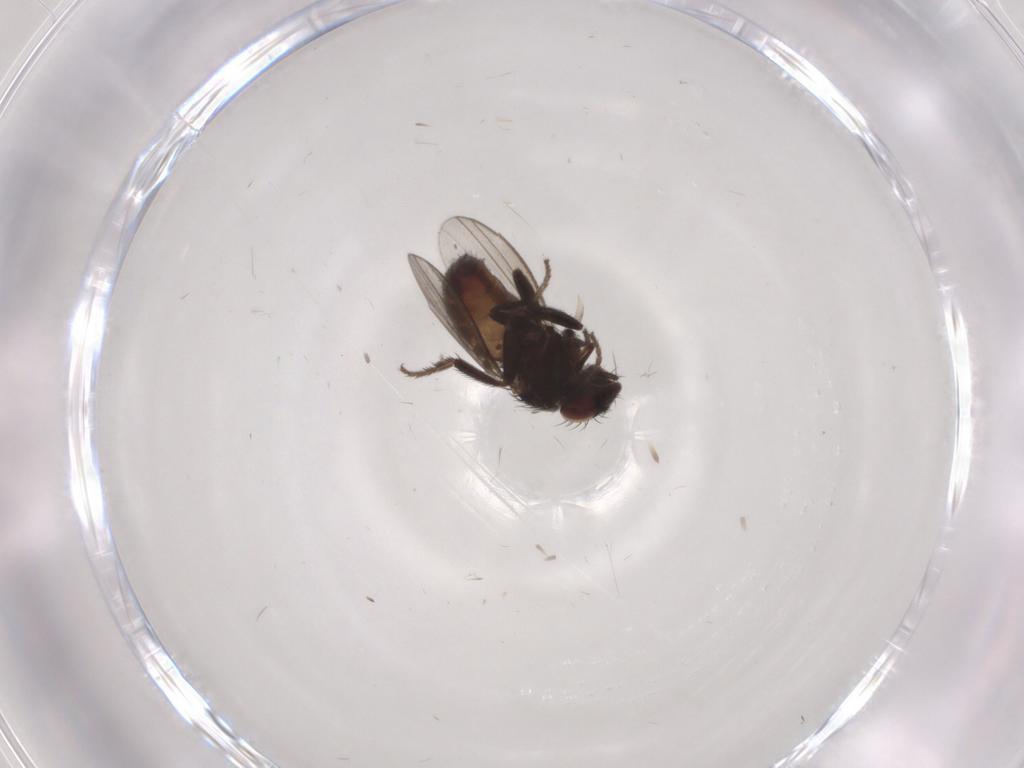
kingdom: Animalia
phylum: Arthropoda
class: Insecta
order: Diptera
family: Milichiidae
